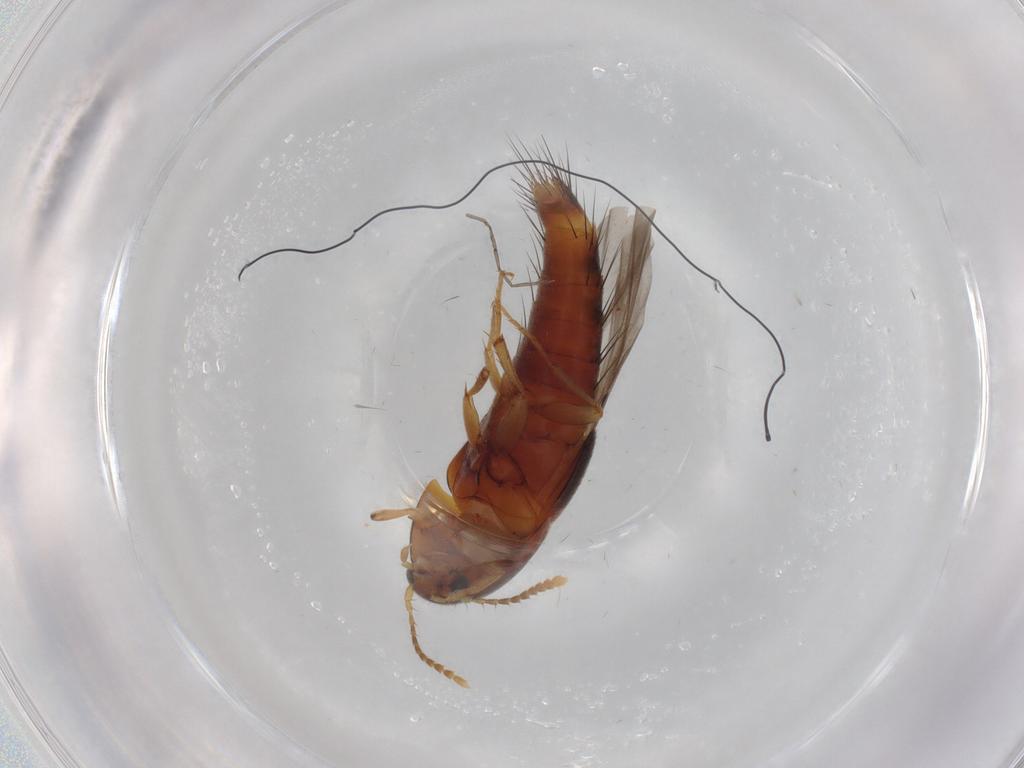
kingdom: Animalia
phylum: Arthropoda
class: Insecta
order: Coleoptera
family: Staphylinidae
